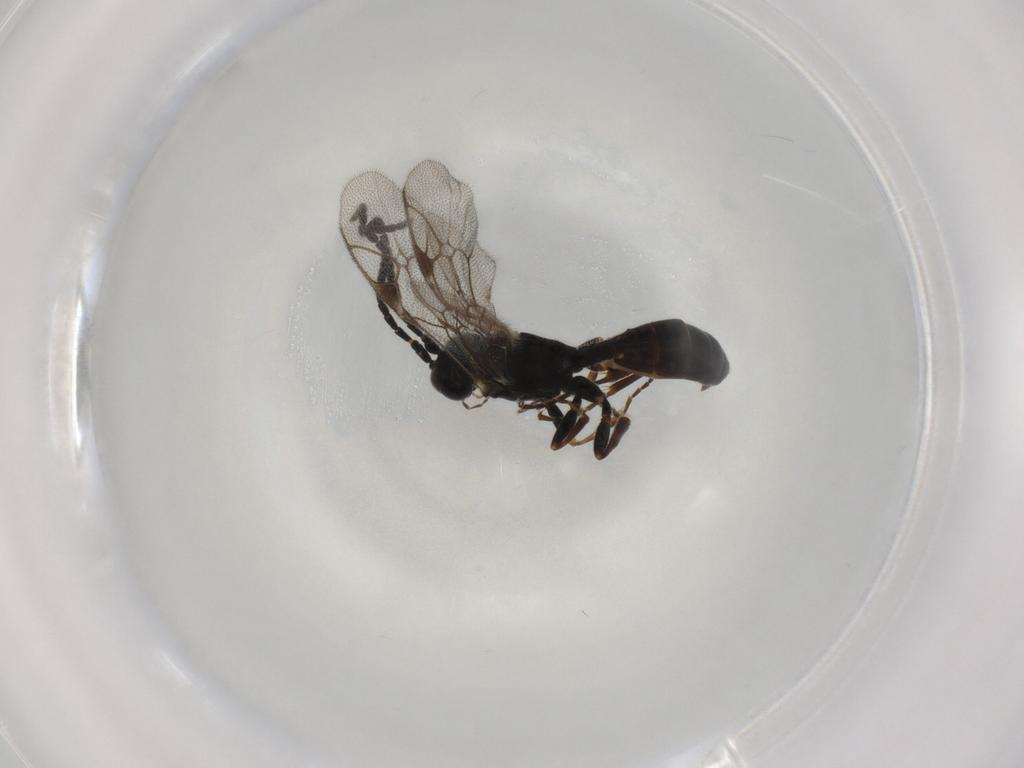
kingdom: Animalia
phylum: Arthropoda
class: Insecta
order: Hymenoptera
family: Ichneumonidae
